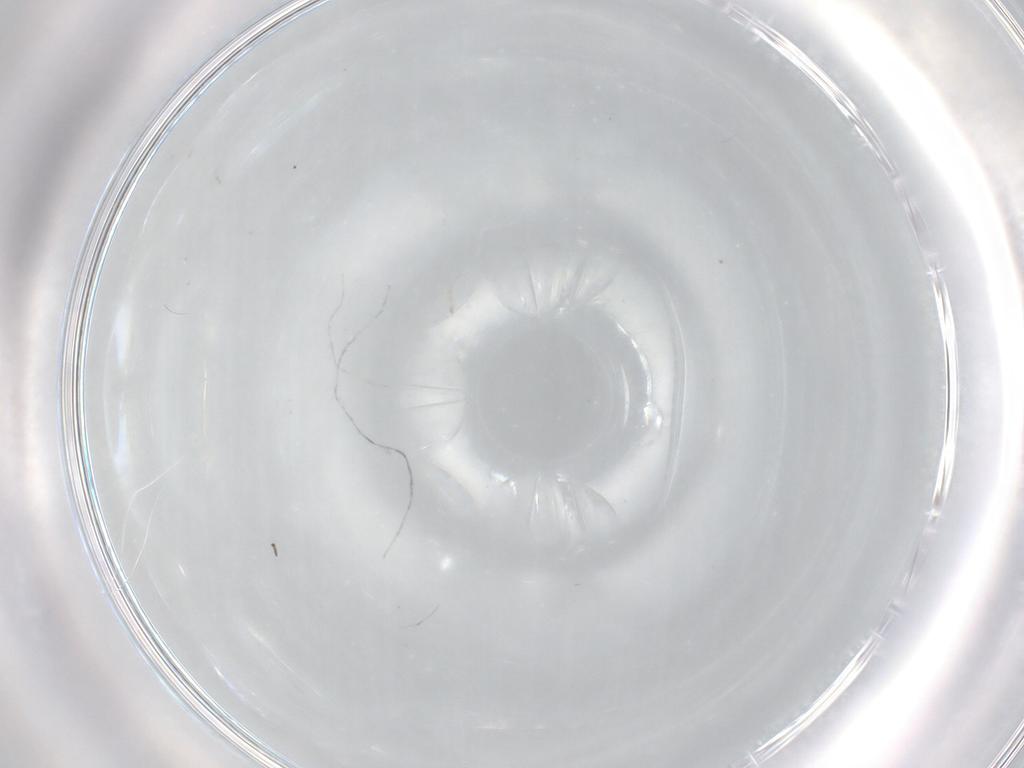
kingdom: Animalia
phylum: Arthropoda
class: Insecta
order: Diptera
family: Chironomidae
